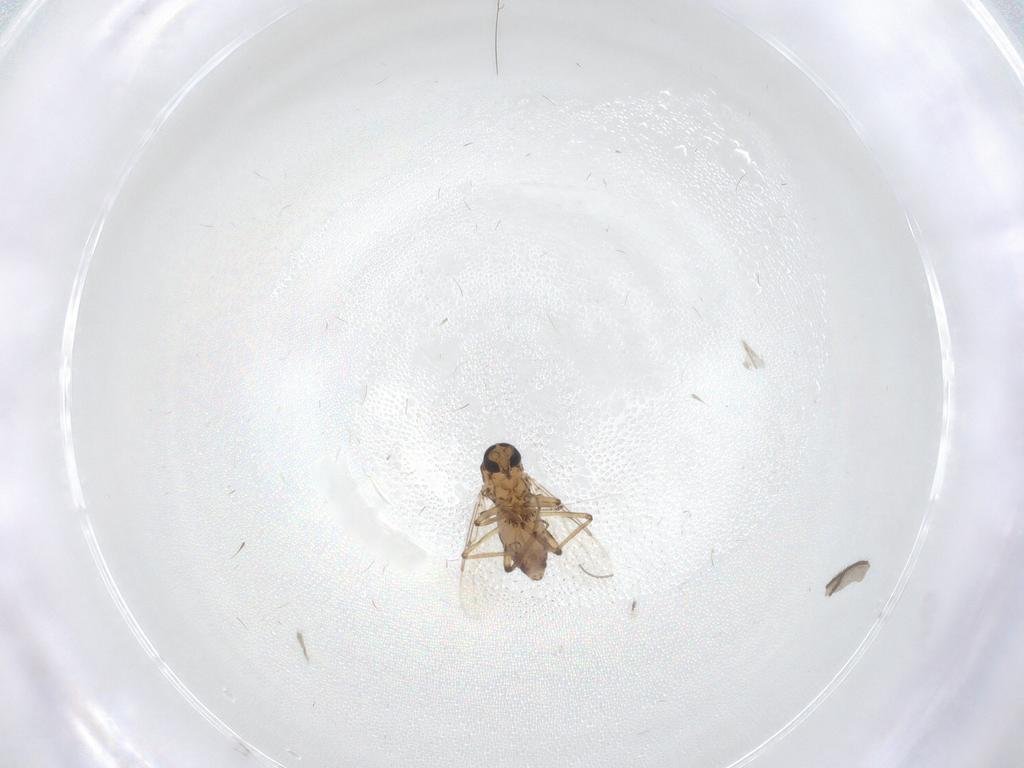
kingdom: Animalia
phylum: Arthropoda
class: Insecta
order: Diptera
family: Ceratopogonidae
